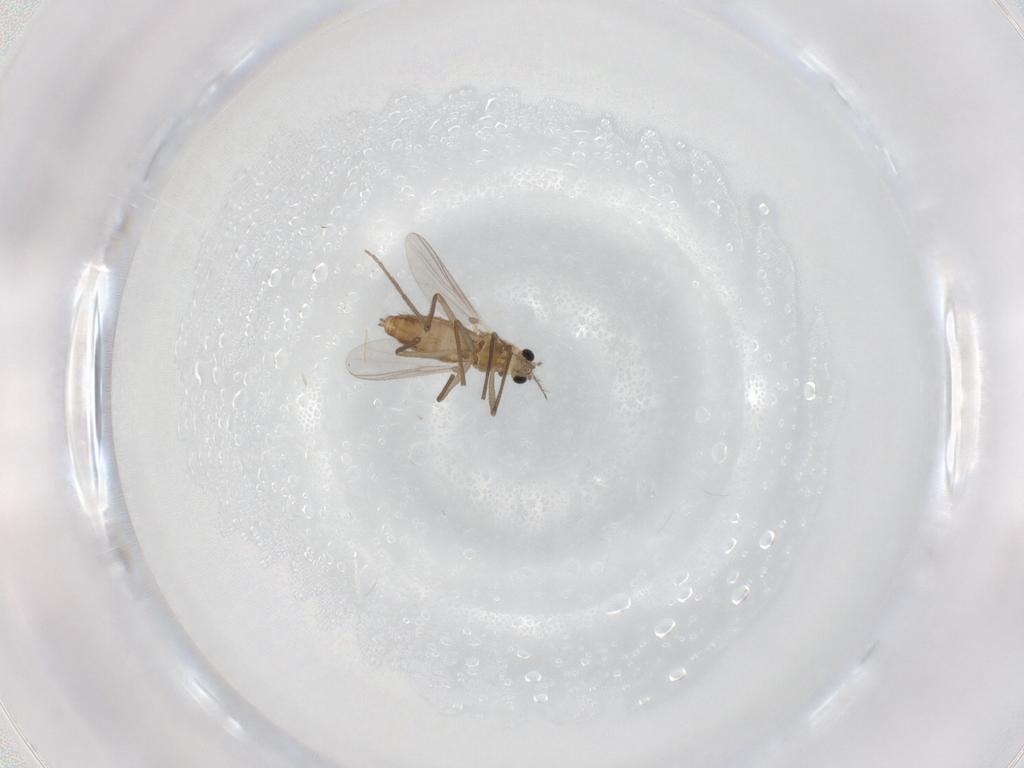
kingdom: Animalia
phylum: Arthropoda
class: Insecta
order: Diptera
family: Chironomidae
